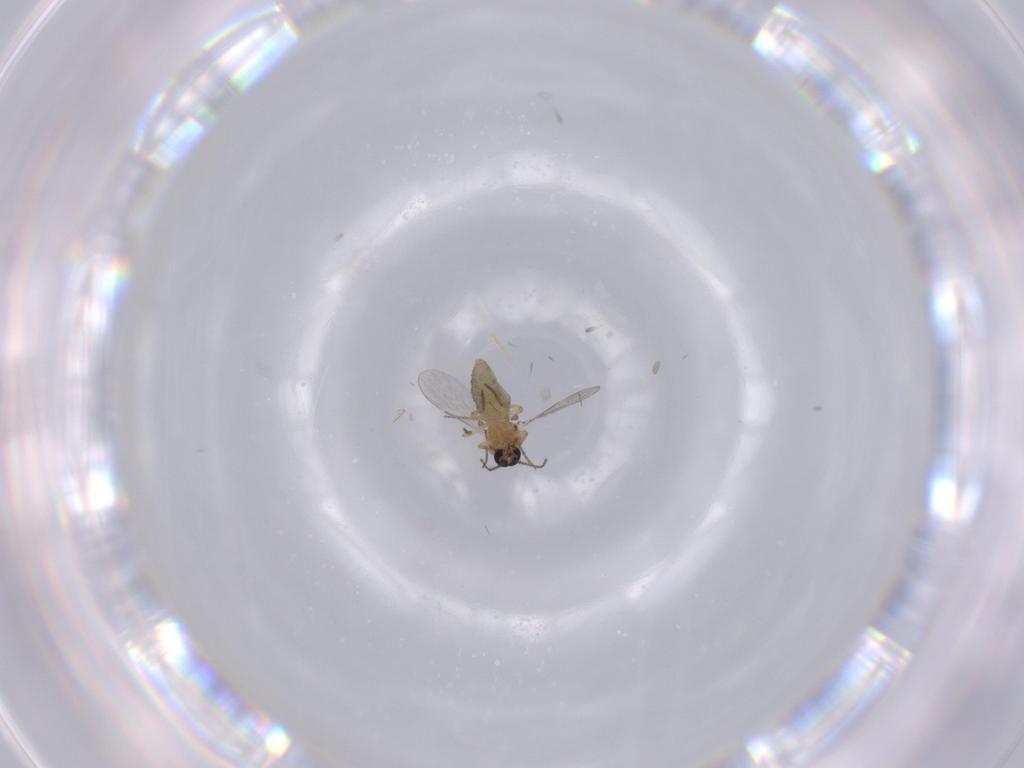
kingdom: Animalia
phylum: Arthropoda
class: Insecta
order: Diptera
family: Ceratopogonidae
